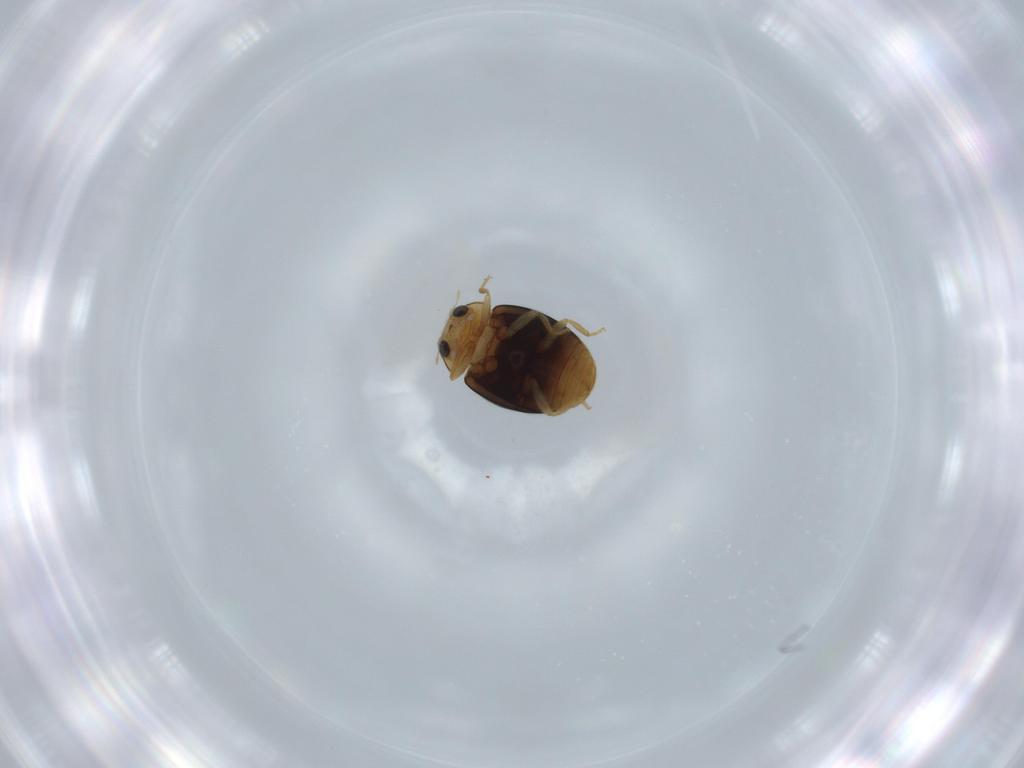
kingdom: Animalia
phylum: Arthropoda
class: Insecta
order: Coleoptera
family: Coccinellidae
